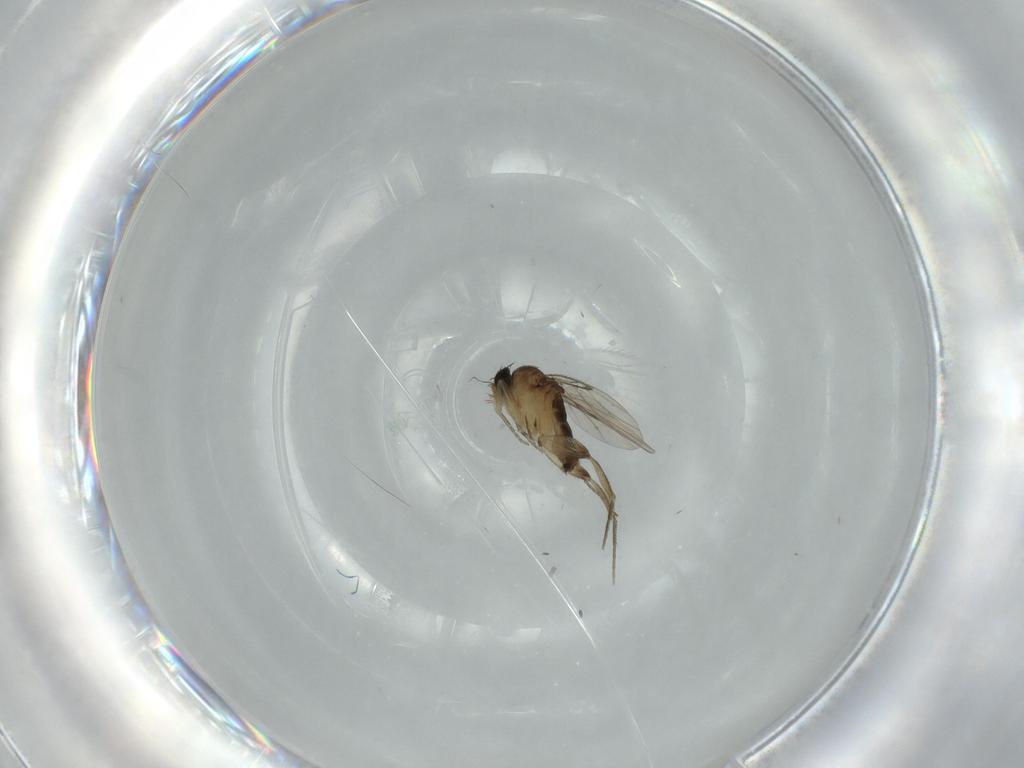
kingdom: Animalia
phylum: Arthropoda
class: Insecta
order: Diptera
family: Phoridae
